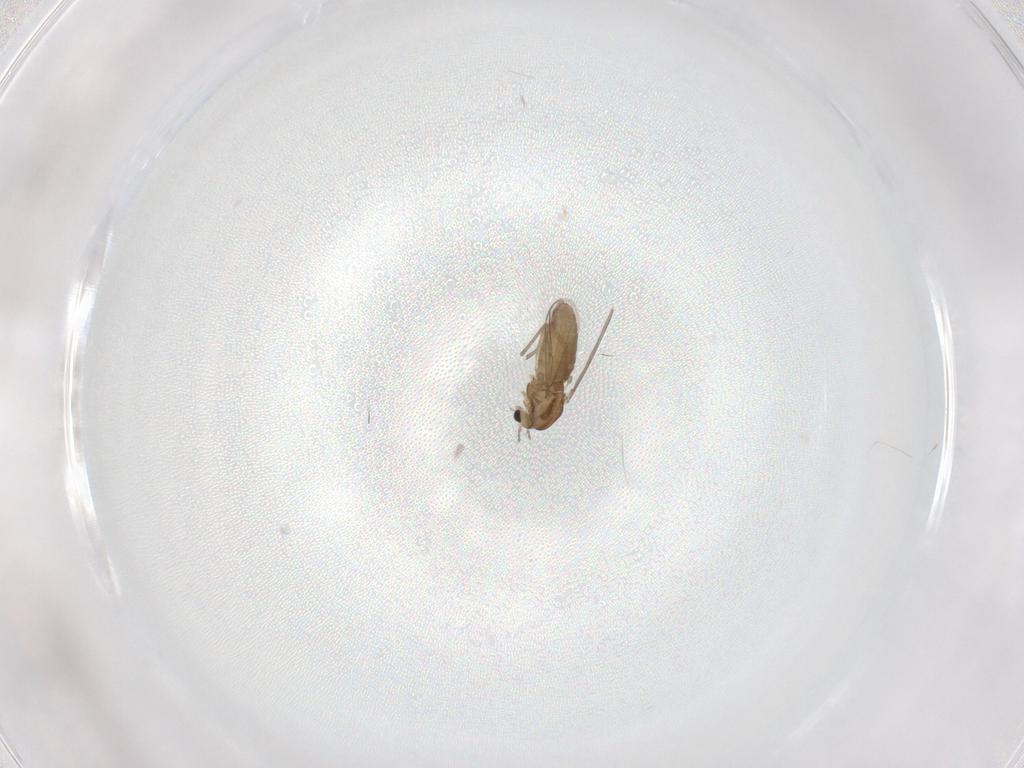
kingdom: Animalia
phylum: Arthropoda
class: Insecta
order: Diptera
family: Chironomidae
